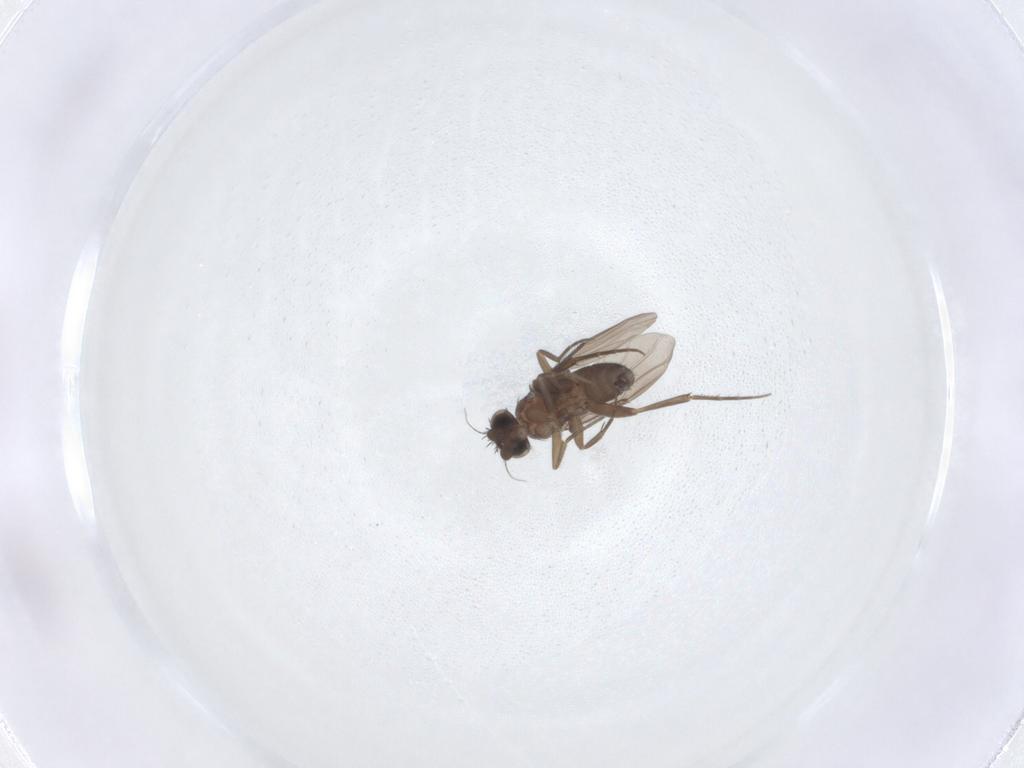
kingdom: Animalia
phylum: Arthropoda
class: Insecta
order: Diptera
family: Phoridae
